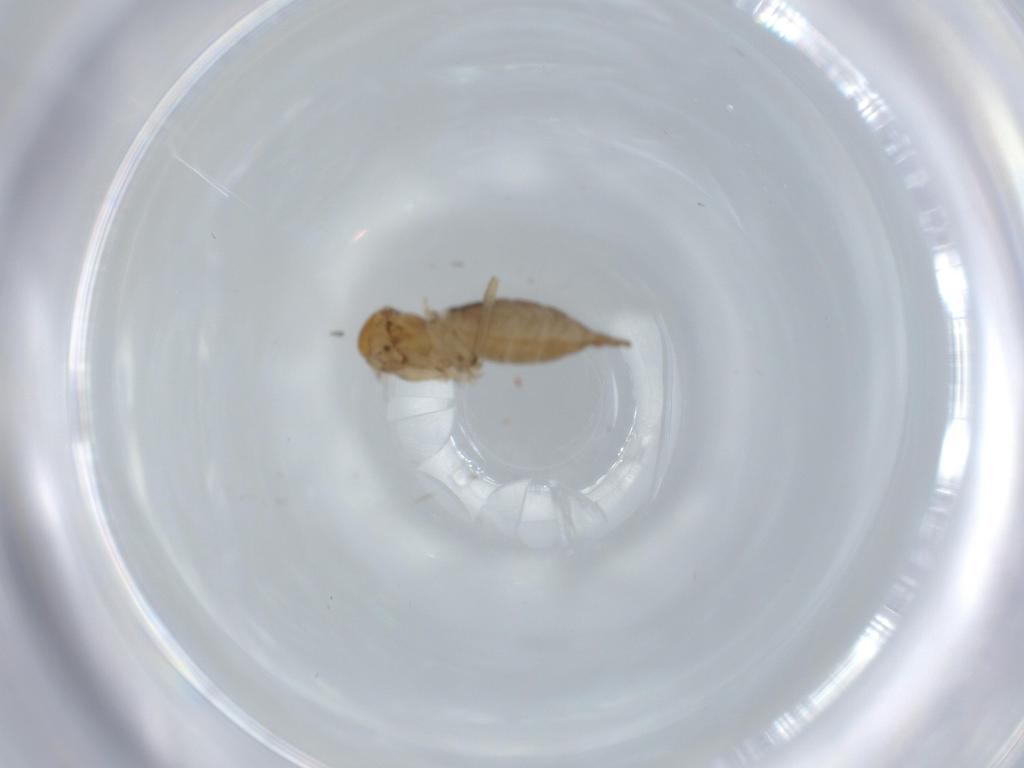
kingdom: Animalia
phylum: Arthropoda
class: Insecta
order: Diptera
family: Sciaridae
